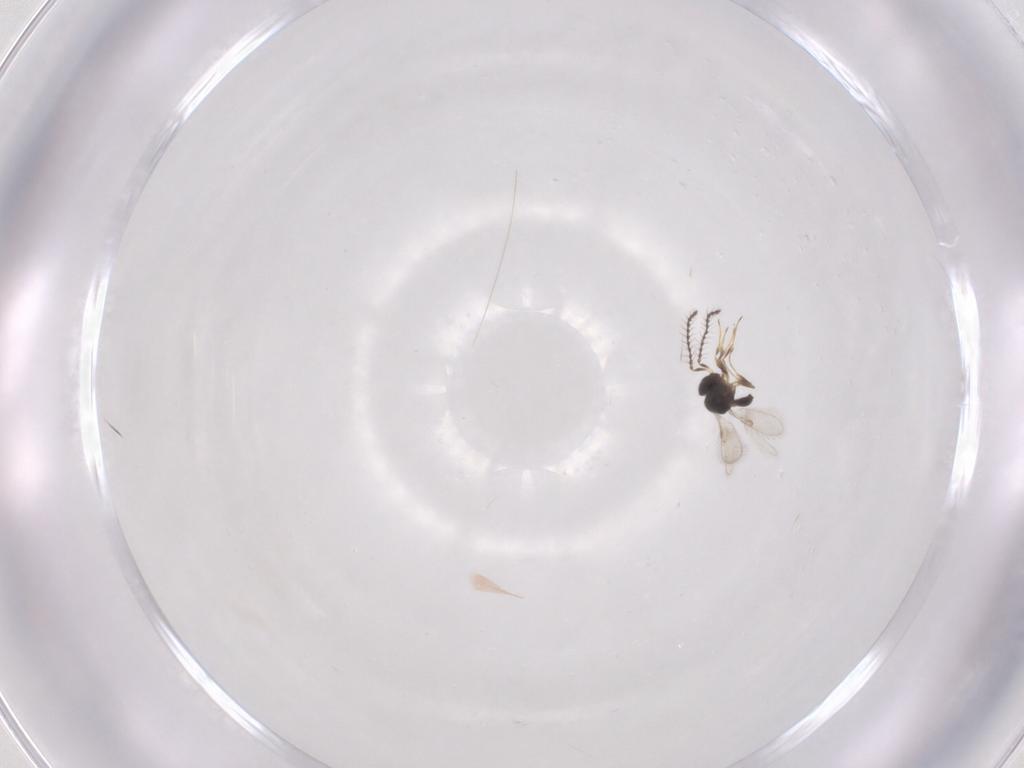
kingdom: Animalia
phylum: Arthropoda
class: Insecta
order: Hymenoptera
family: Scelionidae
